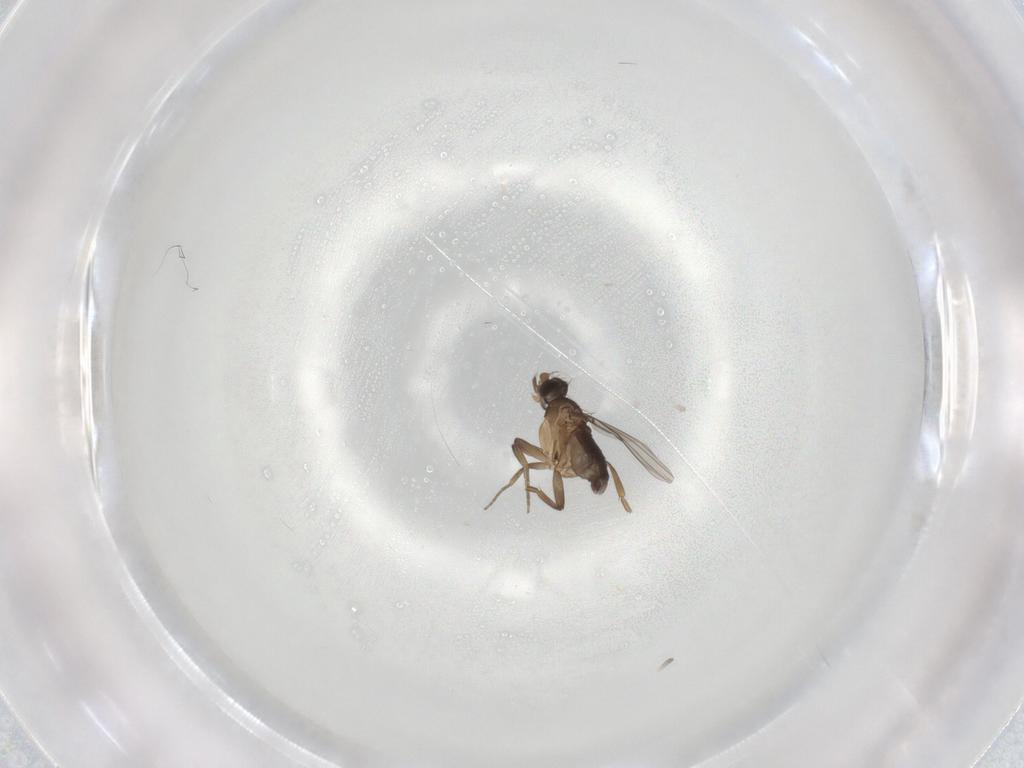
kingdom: Animalia
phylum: Arthropoda
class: Insecta
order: Diptera
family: Phoridae
